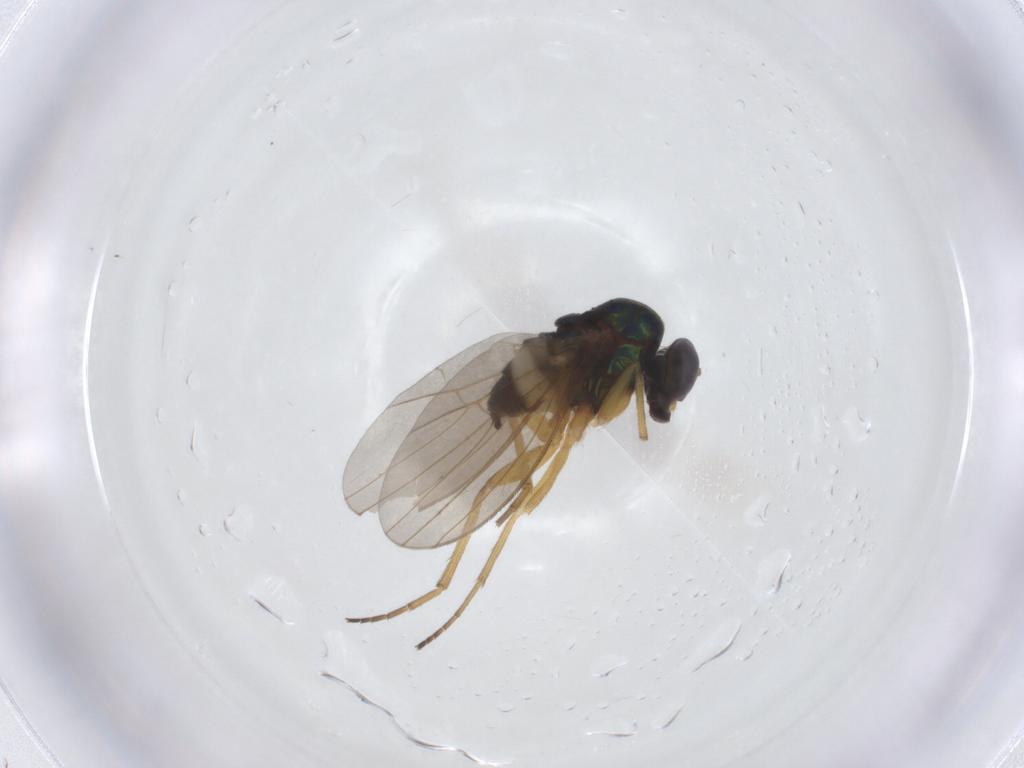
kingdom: Animalia
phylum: Arthropoda
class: Insecta
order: Diptera
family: Dolichopodidae
